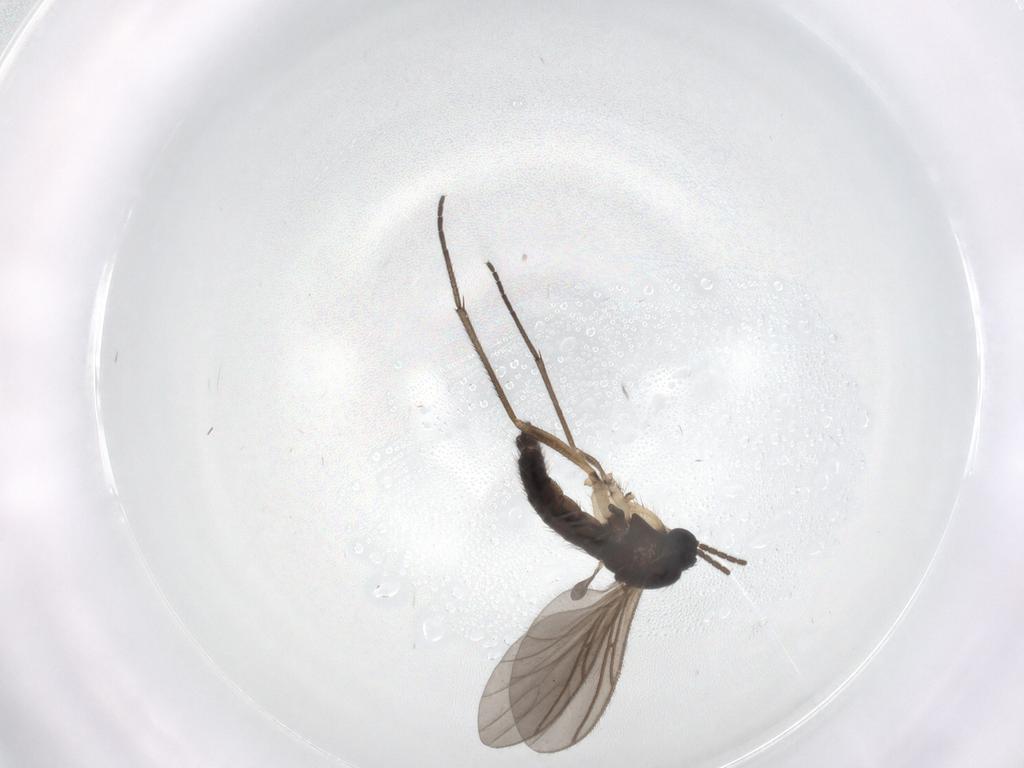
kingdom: Animalia
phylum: Arthropoda
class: Insecta
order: Diptera
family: Sciaridae
